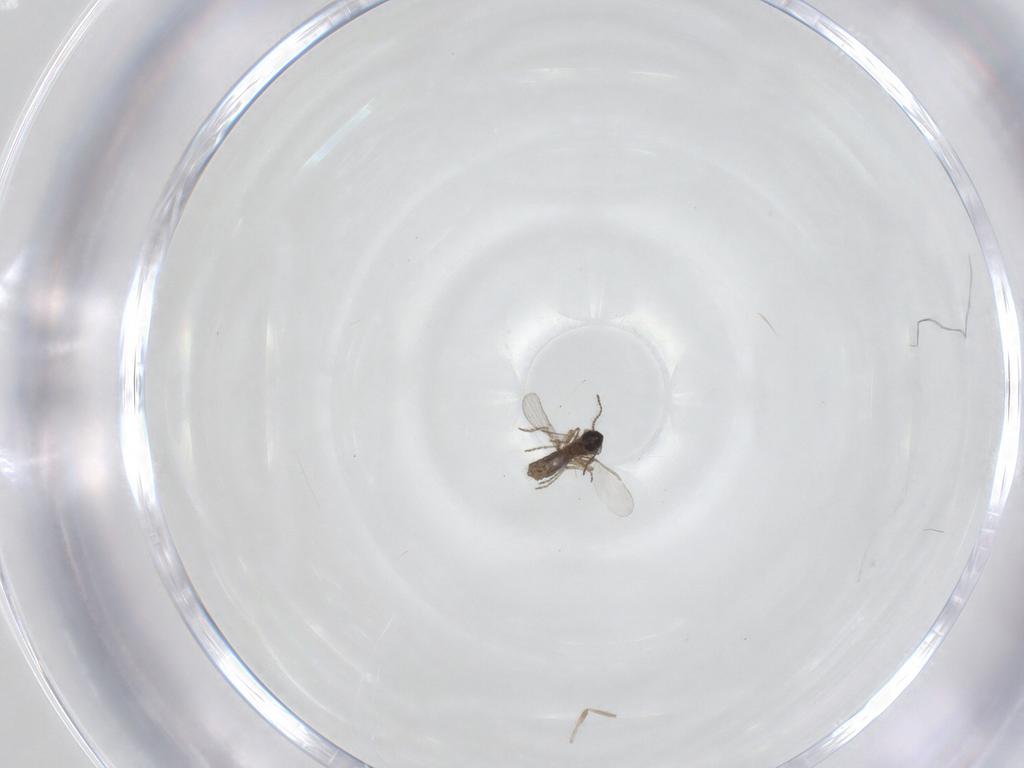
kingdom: Animalia
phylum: Arthropoda
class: Insecta
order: Diptera
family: Ceratopogonidae
